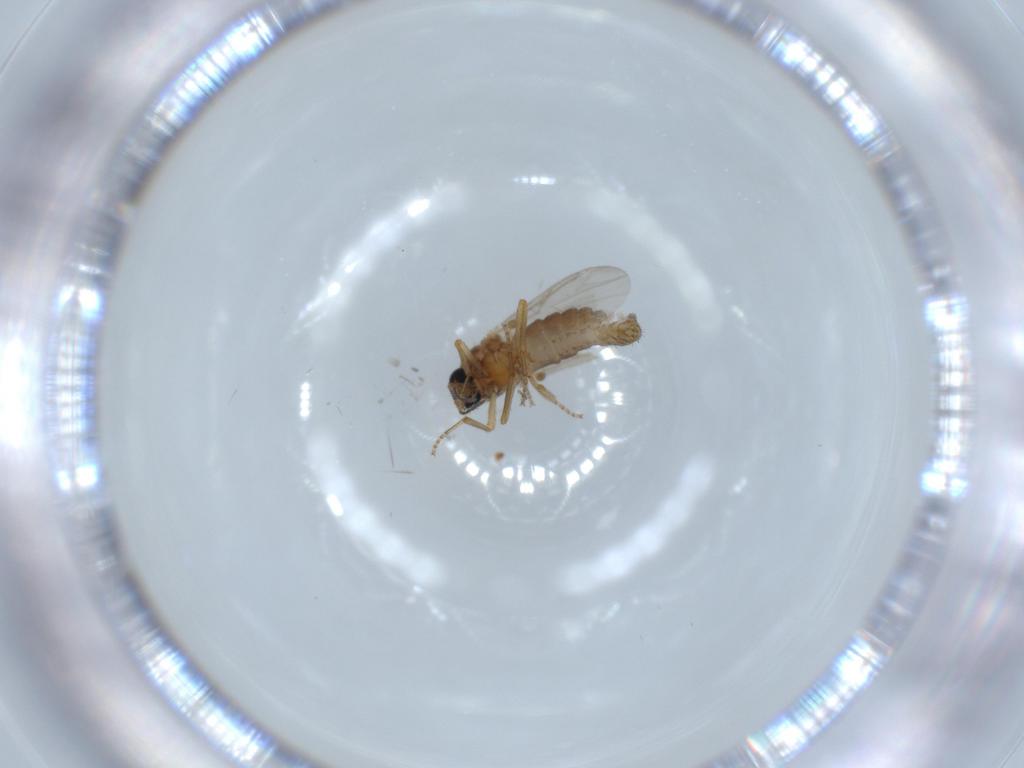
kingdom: Animalia
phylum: Arthropoda
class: Insecta
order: Diptera
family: Ceratopogonidae
